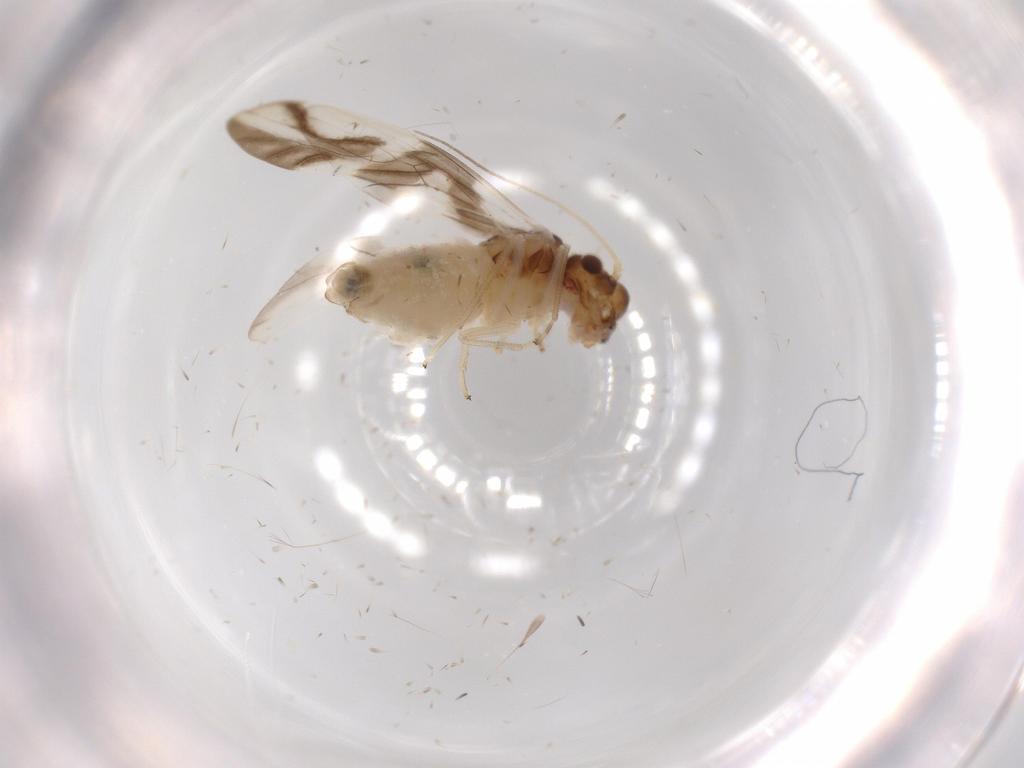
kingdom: Animalia
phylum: Arthropoda
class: Insecta
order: Psocodea
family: Caeciliusidae
